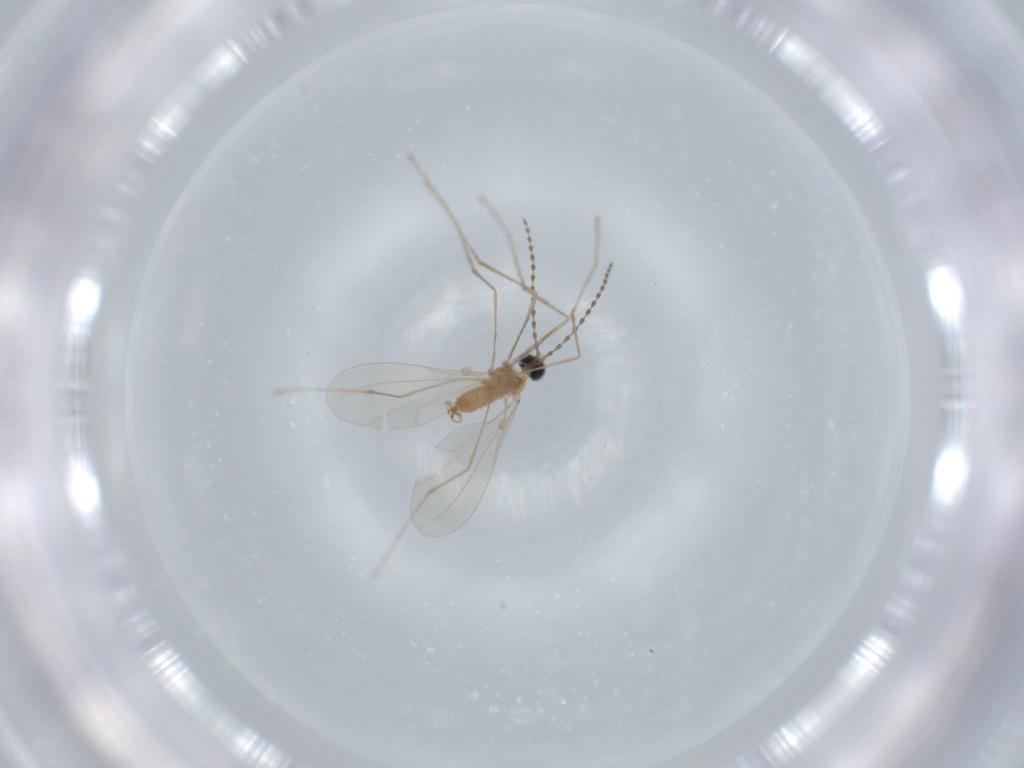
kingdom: Animalia
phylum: Arthropoda
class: Insecta
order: Diptera
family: Cecidomyiidae
